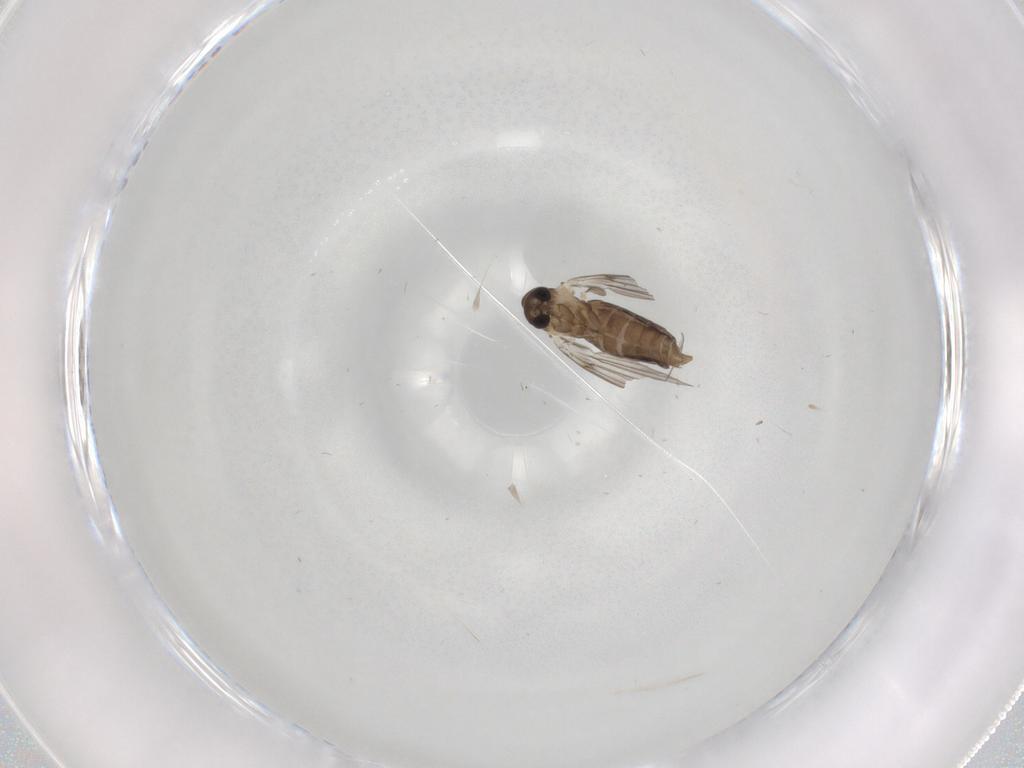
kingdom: Animalia
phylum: Arthropoda
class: Insecta
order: Diptera
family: Psychodidae
